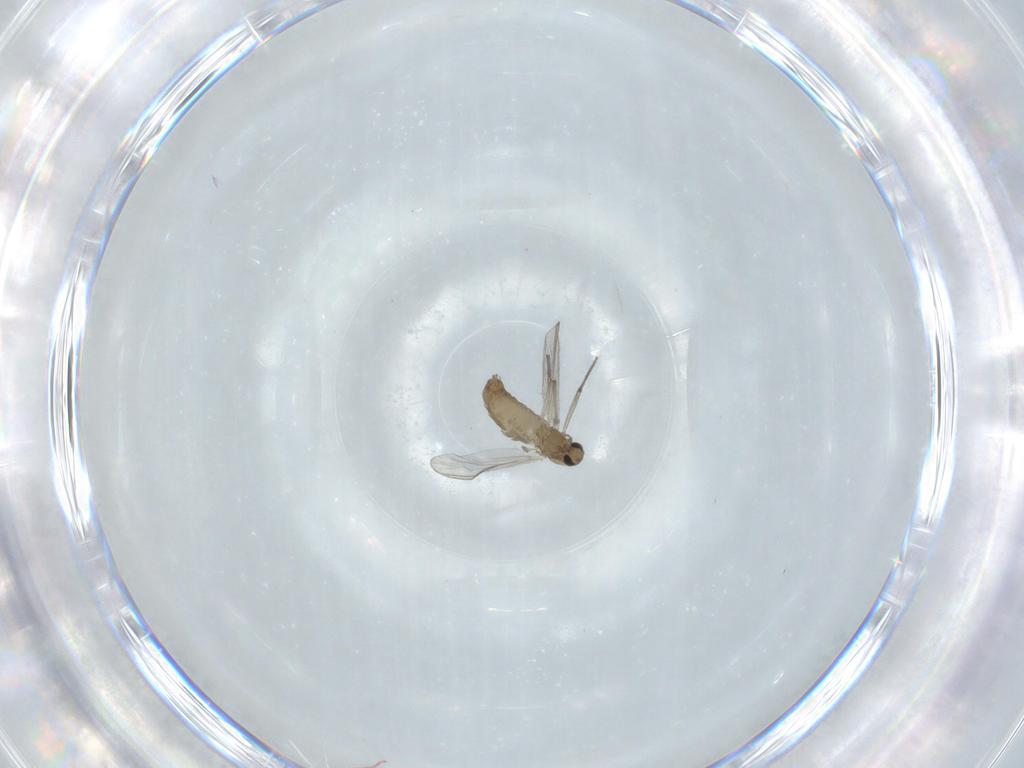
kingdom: Animalia
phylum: Arthropoda
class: Insecta
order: Diptera
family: Chironomidae
